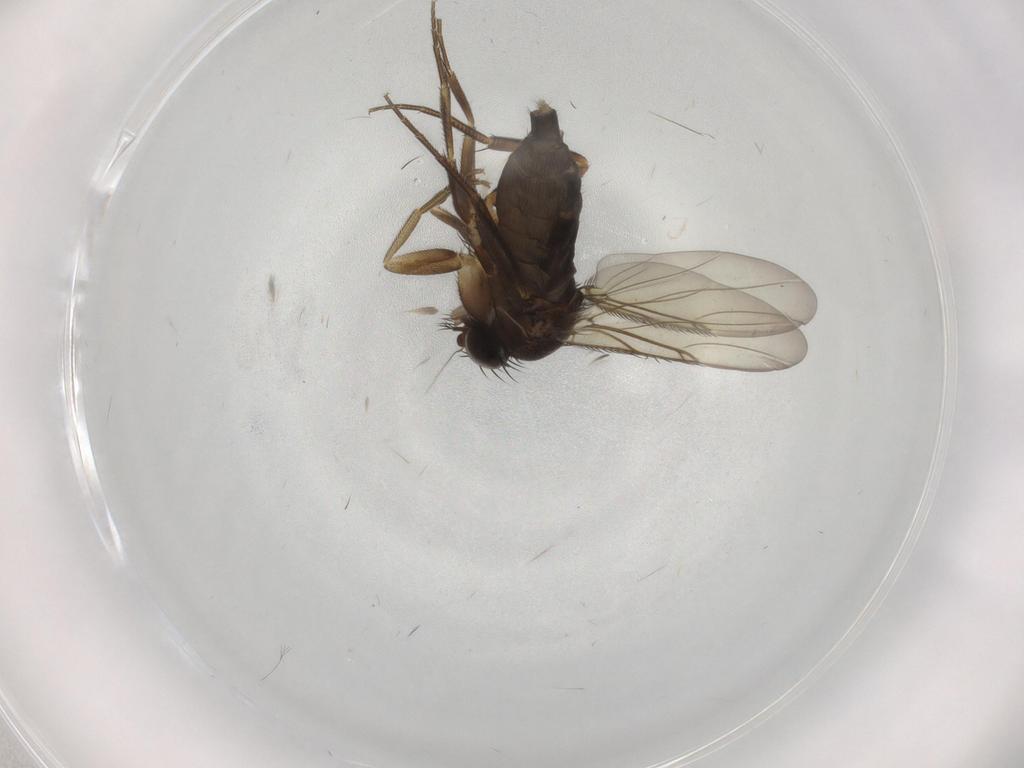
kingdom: Animalia
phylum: Arthropoda
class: Insecta
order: Diptera
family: Phoridae
